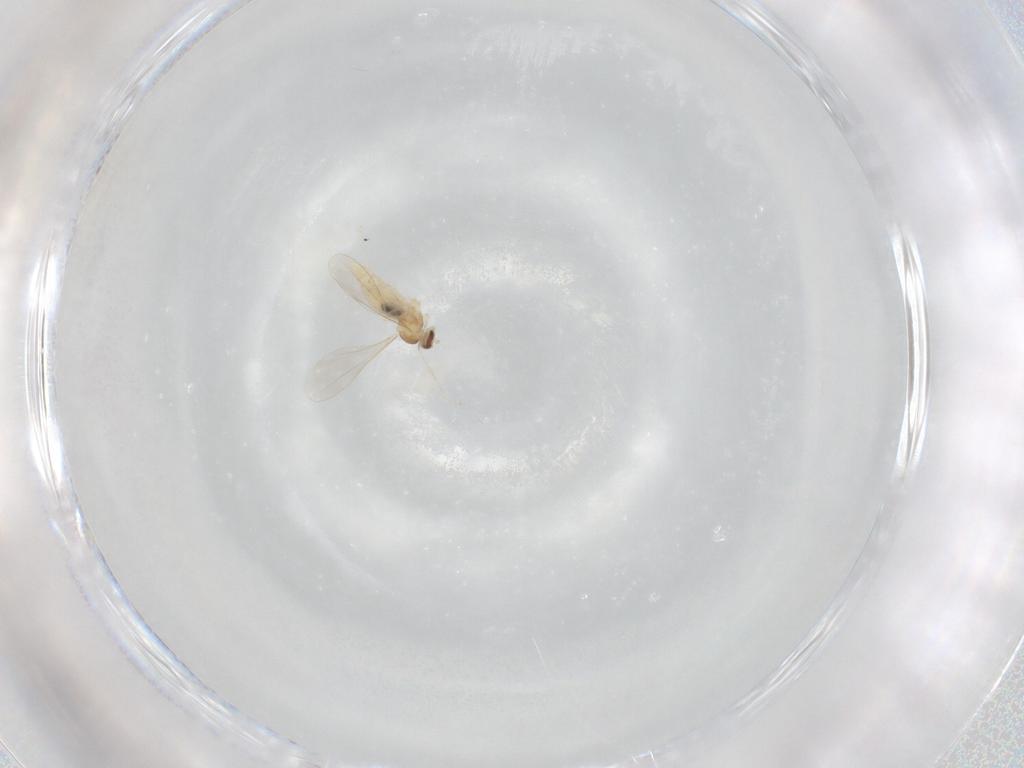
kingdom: Animalia
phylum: Arthropoda
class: Insecta
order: Diptera
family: Cecidomyiidae
